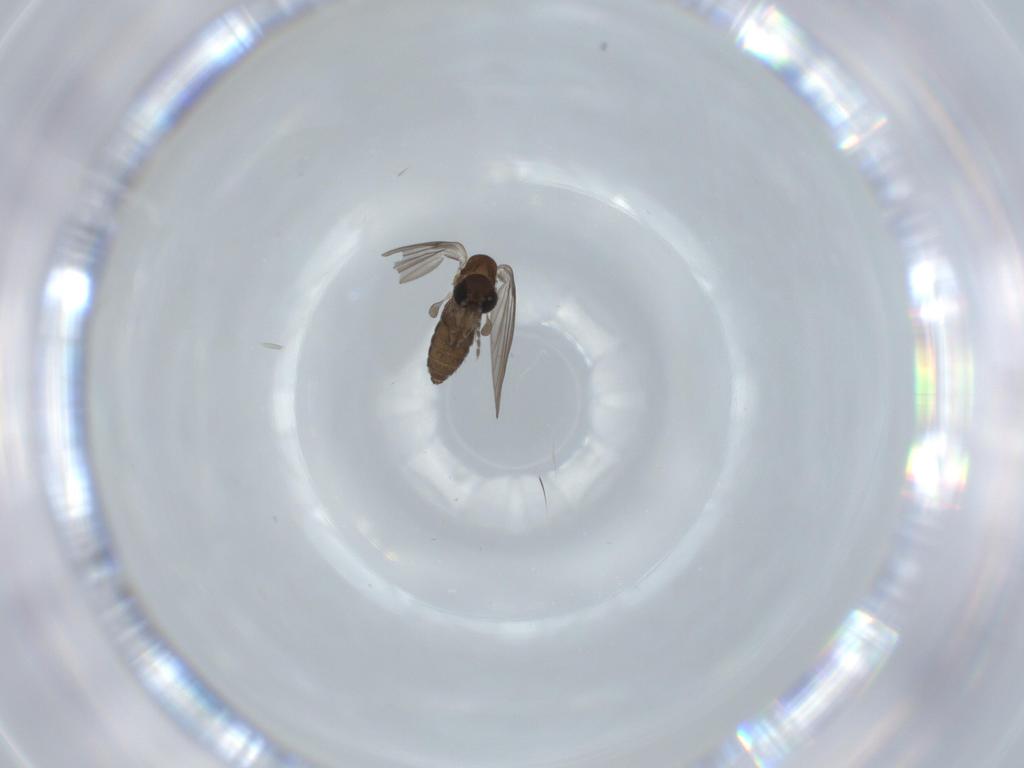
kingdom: Animalia
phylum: Arthropoda
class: Insecta
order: Diptera
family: Psychodidae
